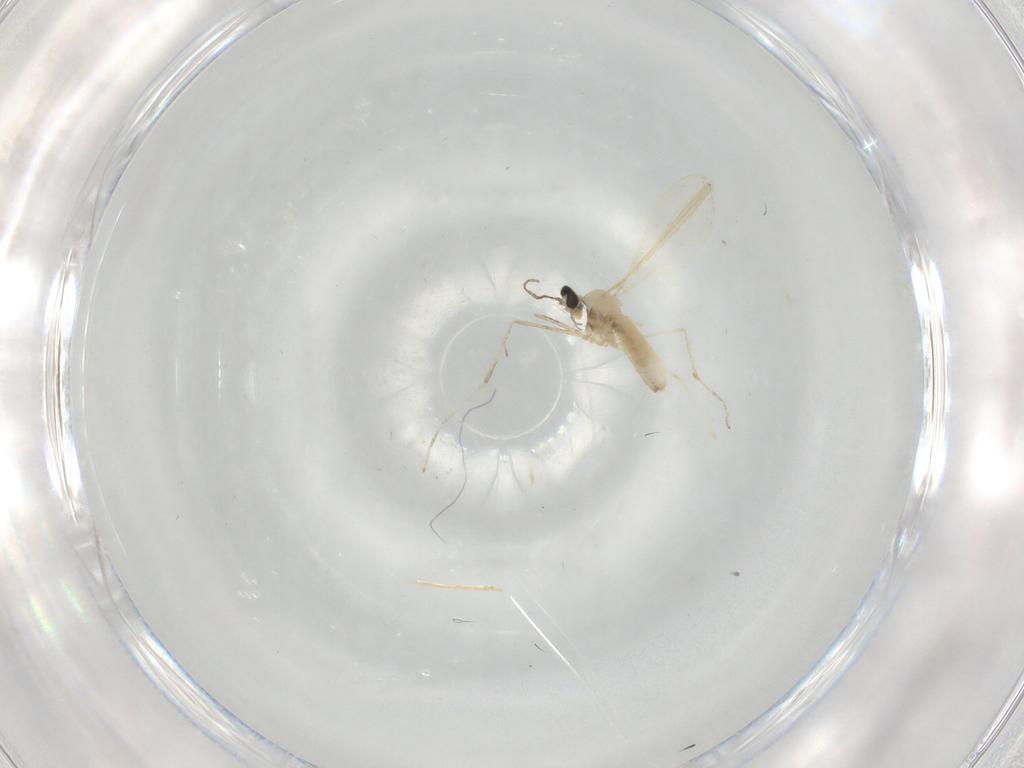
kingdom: Animalia
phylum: Arthropoda
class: Insecta
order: Diptera
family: Cecidomyiidae
